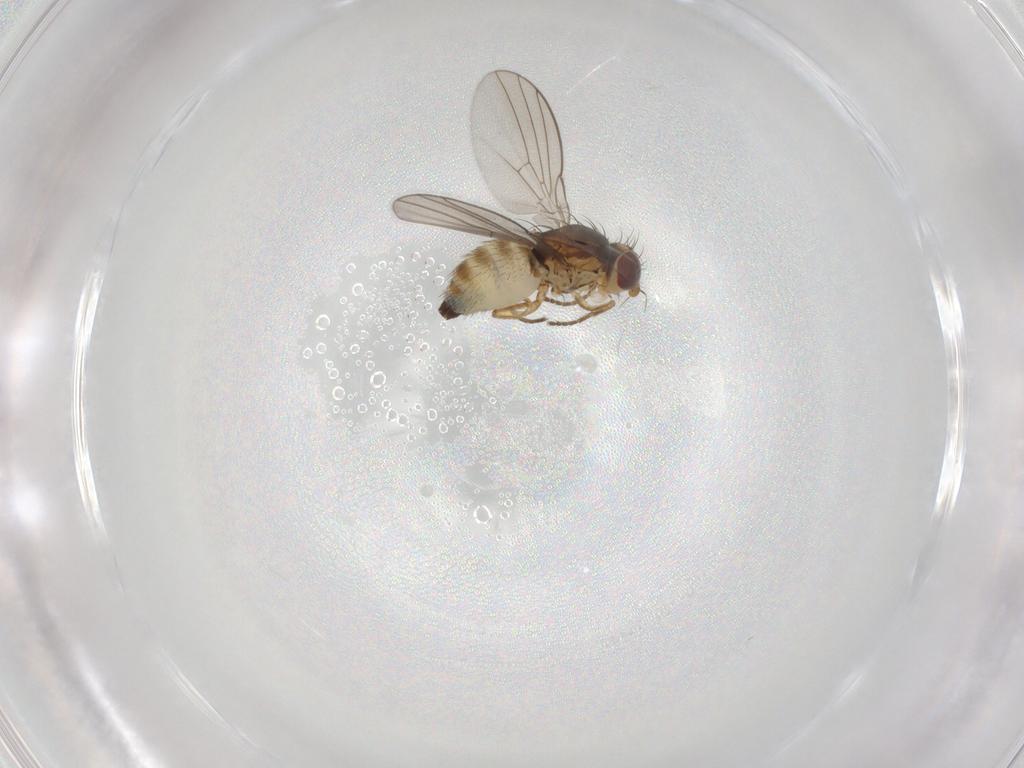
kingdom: Animalia
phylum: Arthropoda
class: Insecta
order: Diptera
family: Agromyzidae
